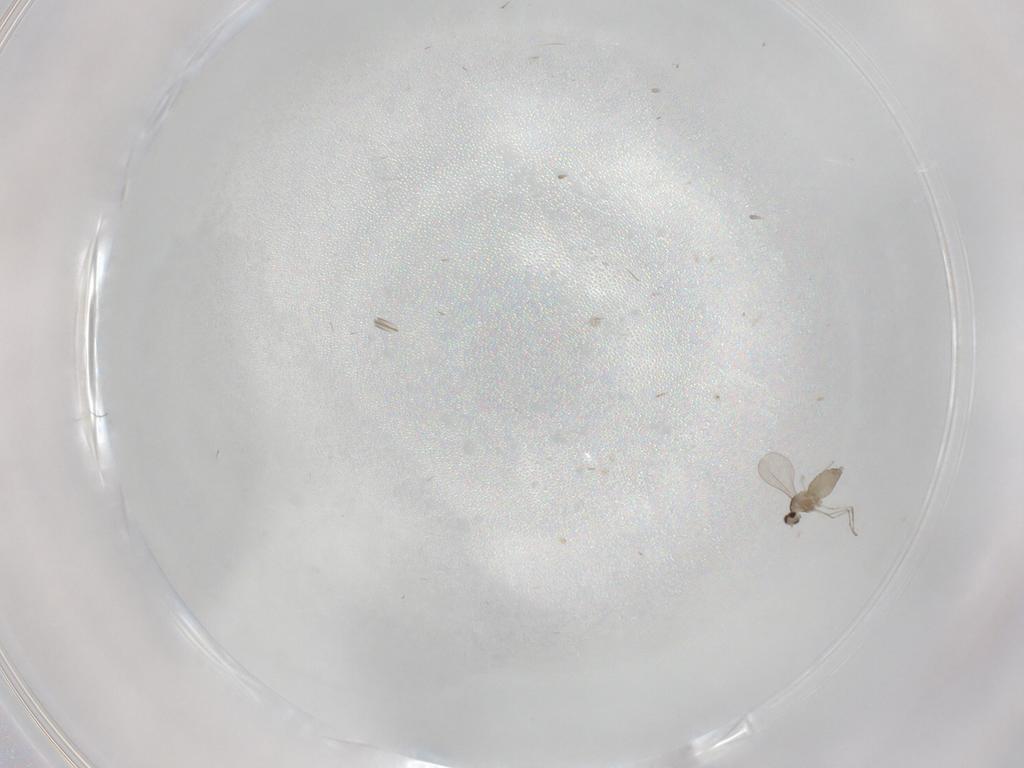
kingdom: Animalia
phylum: Arthropoda
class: Insecta
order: Diptera
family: Cecidomyiidae
